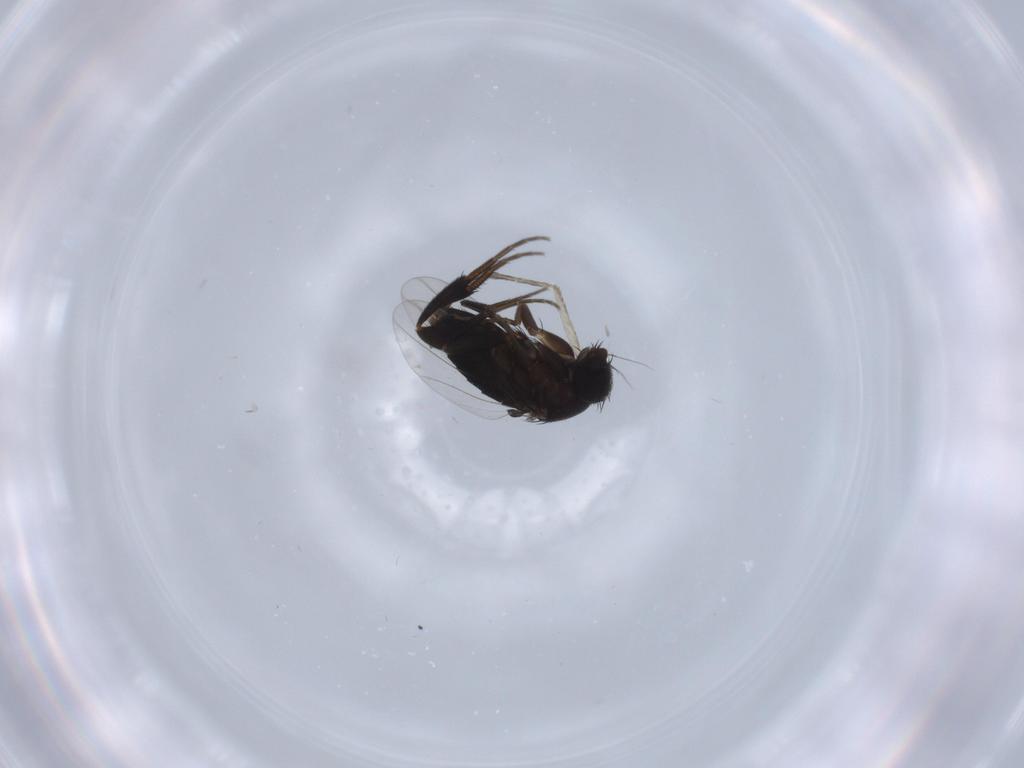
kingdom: Animalia
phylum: Arthropoda
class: Insecta
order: Diptera
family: Phoridae
